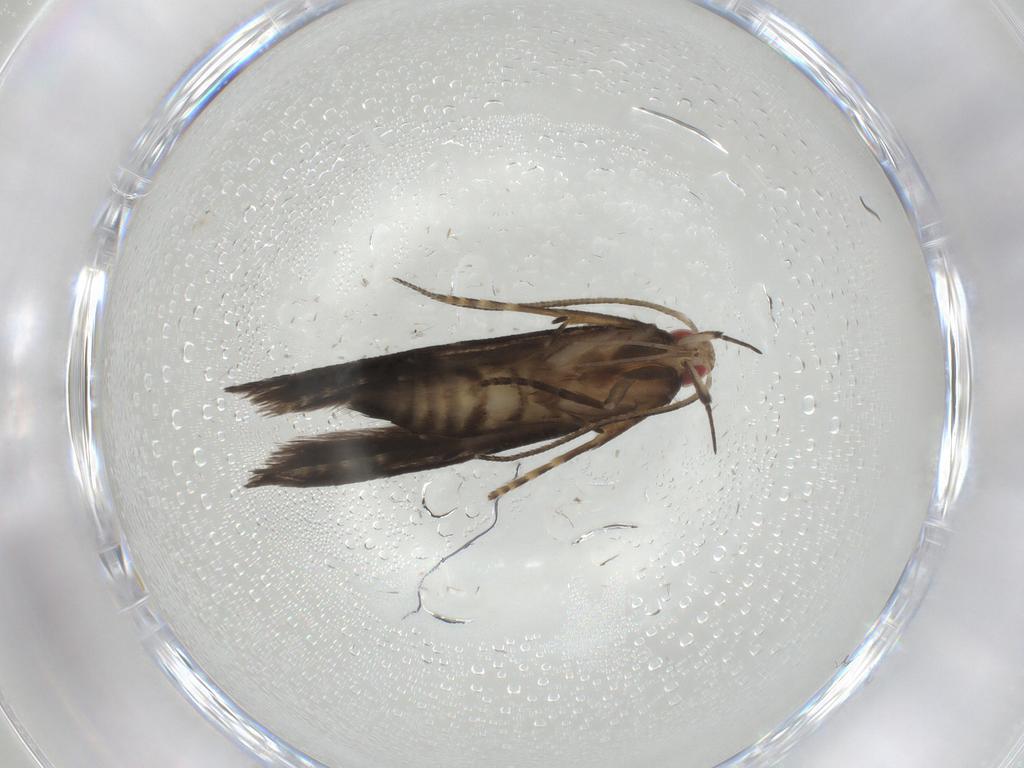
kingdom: Animalia
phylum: Arthropoda
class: Insecta
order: Lepidoptera
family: Gelechiidae
